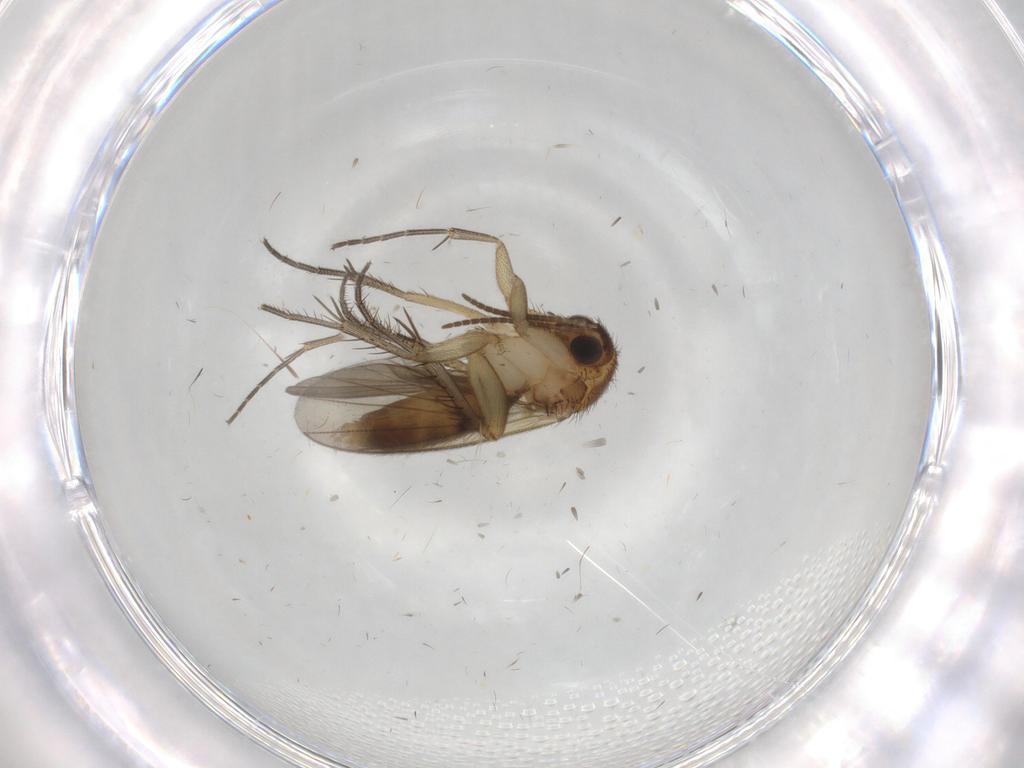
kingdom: Animalia
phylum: Arthropoda
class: Insecta
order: Diptera
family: Mycetophilidae
